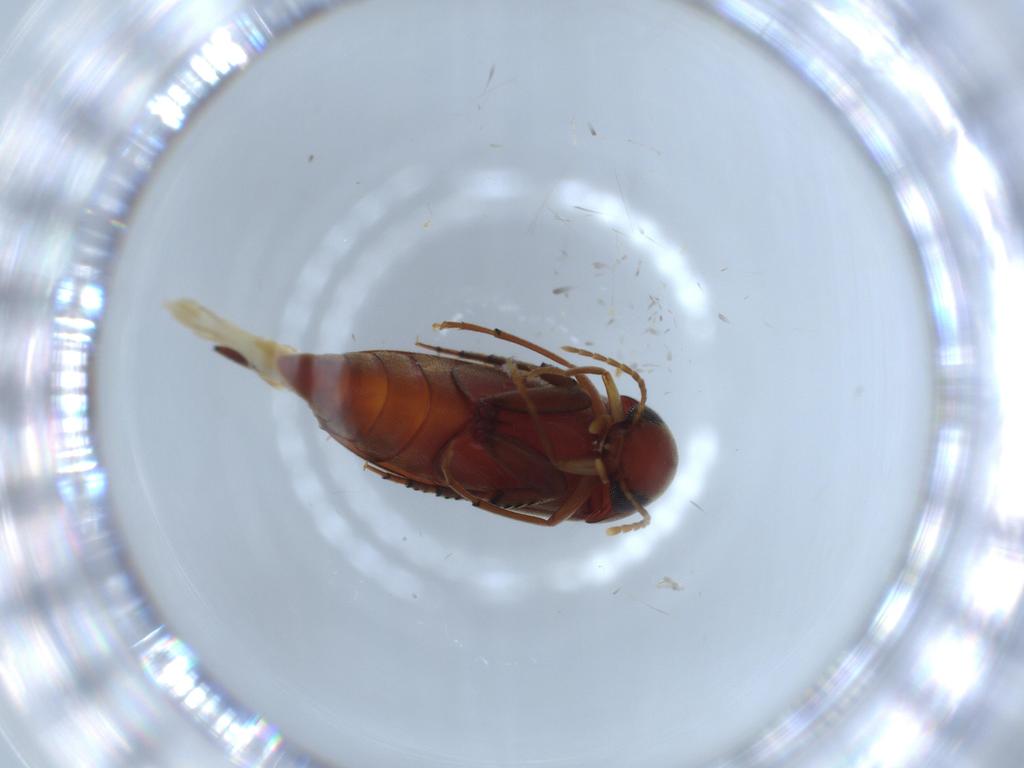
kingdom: Animalia
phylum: Arthropoda
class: Insecta
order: Coleoptera
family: Chrysomelidae
